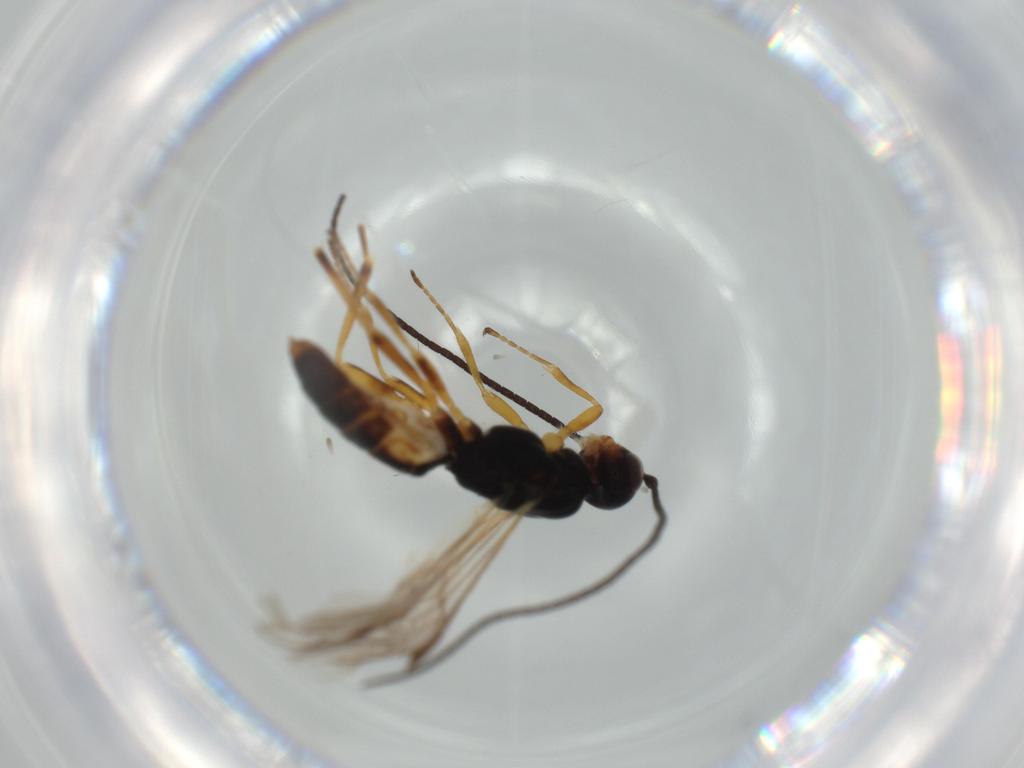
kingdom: Animalia
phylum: Arthropoda
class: Insecta
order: Hymenoptera
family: Braconidae
